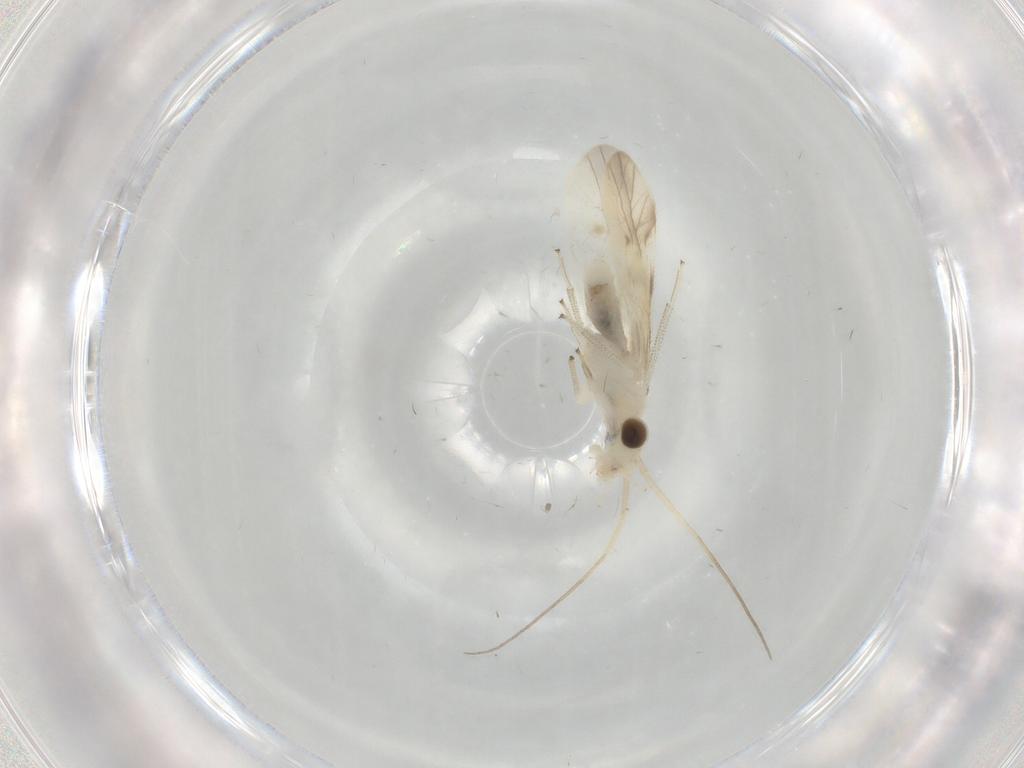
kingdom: Animalia
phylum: Arthropoda
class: Insecta
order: Psocodea
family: Caeciliusidae
